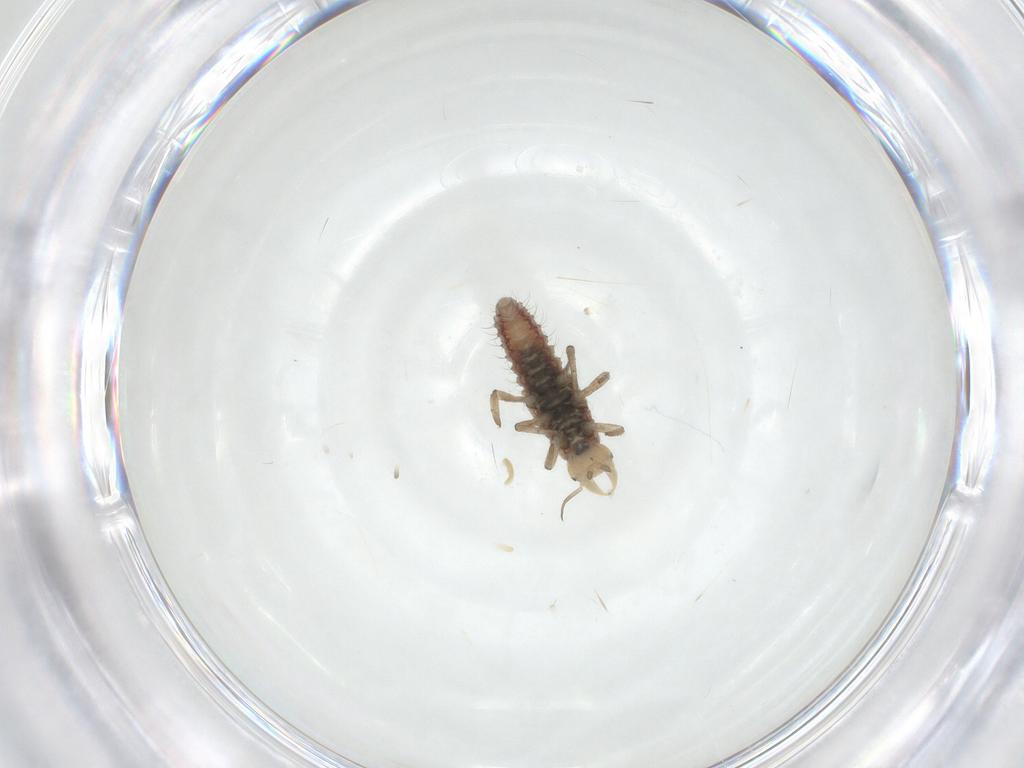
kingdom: Animalia
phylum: Arthropoda
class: Insecta
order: Neuroptera
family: Hemerobiidae
